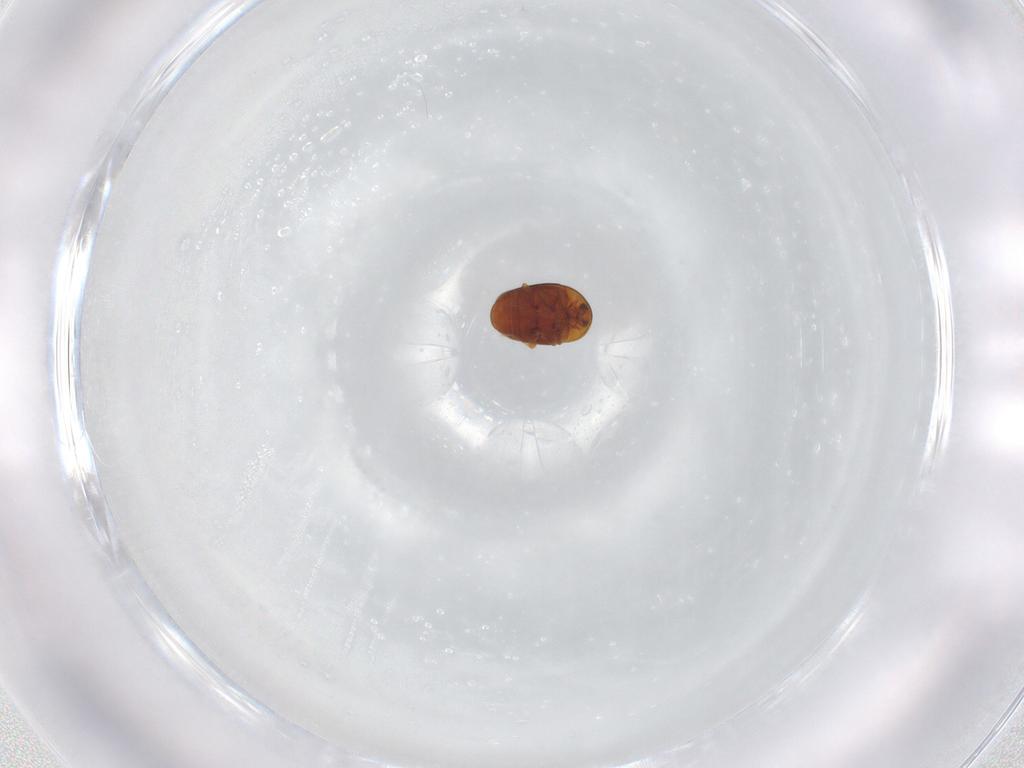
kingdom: Animalia
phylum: Arthropoda
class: Insecta
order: Coleoptera
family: Corylophidae
